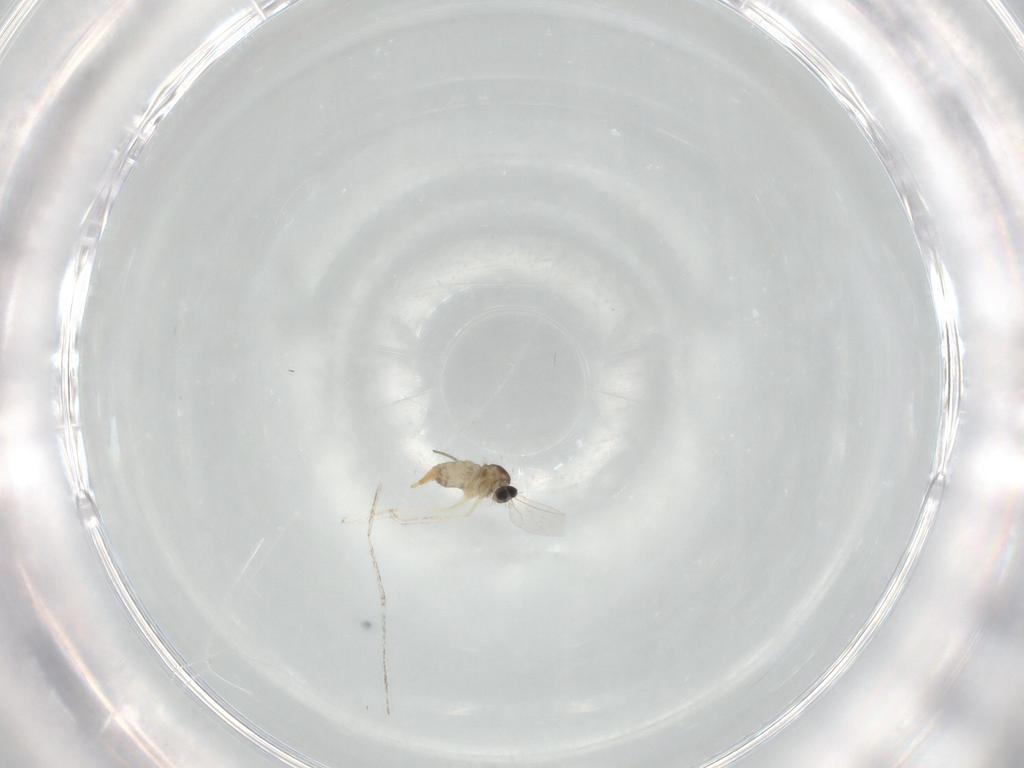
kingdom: Animalia
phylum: Arthropoda
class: Insecta
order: Diptera
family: Cecidomyiidae
